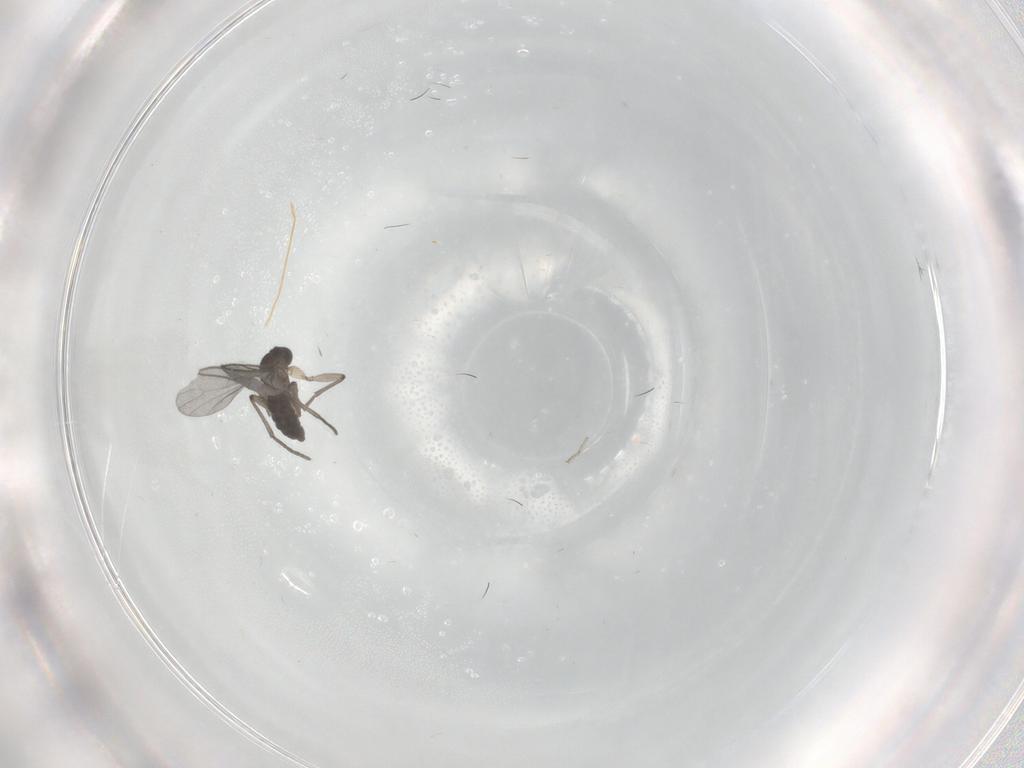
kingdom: Animalia
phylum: Arthropoda
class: Insecta
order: Diptera
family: Sciaridae
